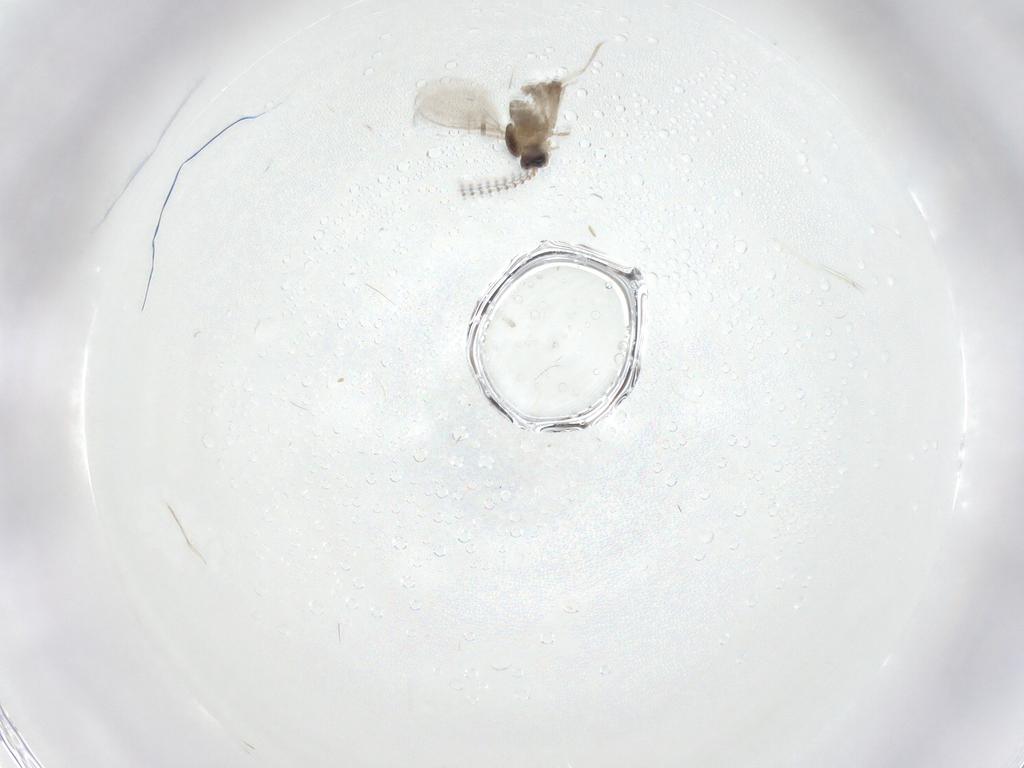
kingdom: Animalia
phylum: Arthropoda
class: Insecta
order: Diptera
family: Cecidomyiidae
